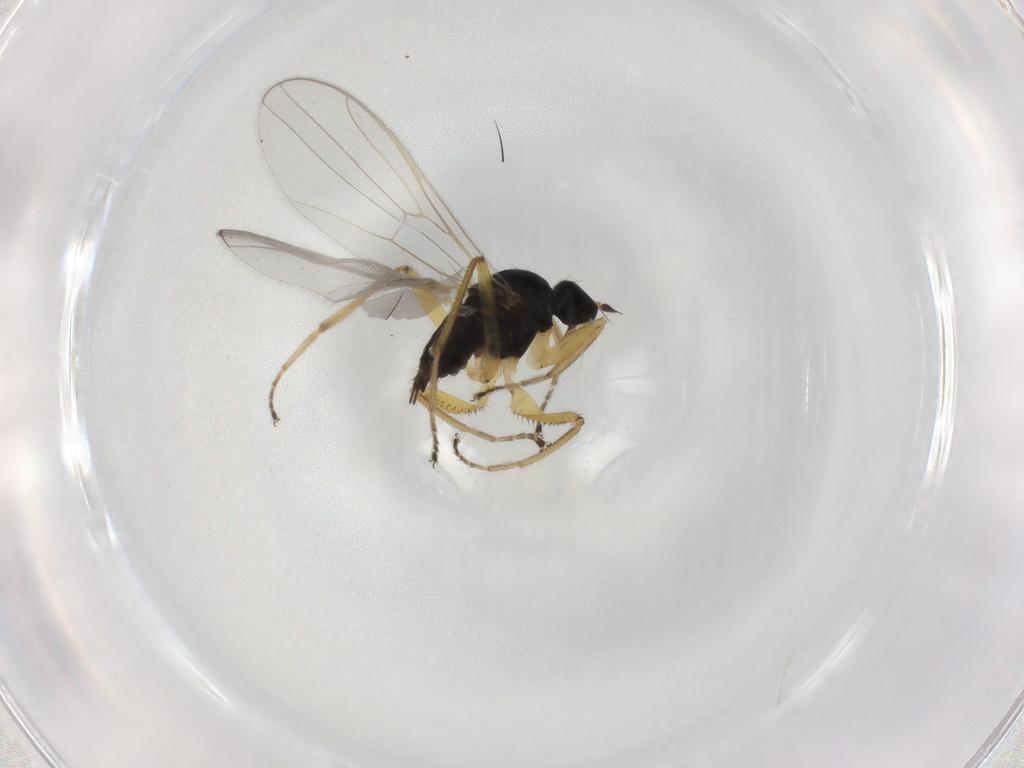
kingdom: Animalia
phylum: Arthropoda
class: Insecta
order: Diptera
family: Hybotidae
